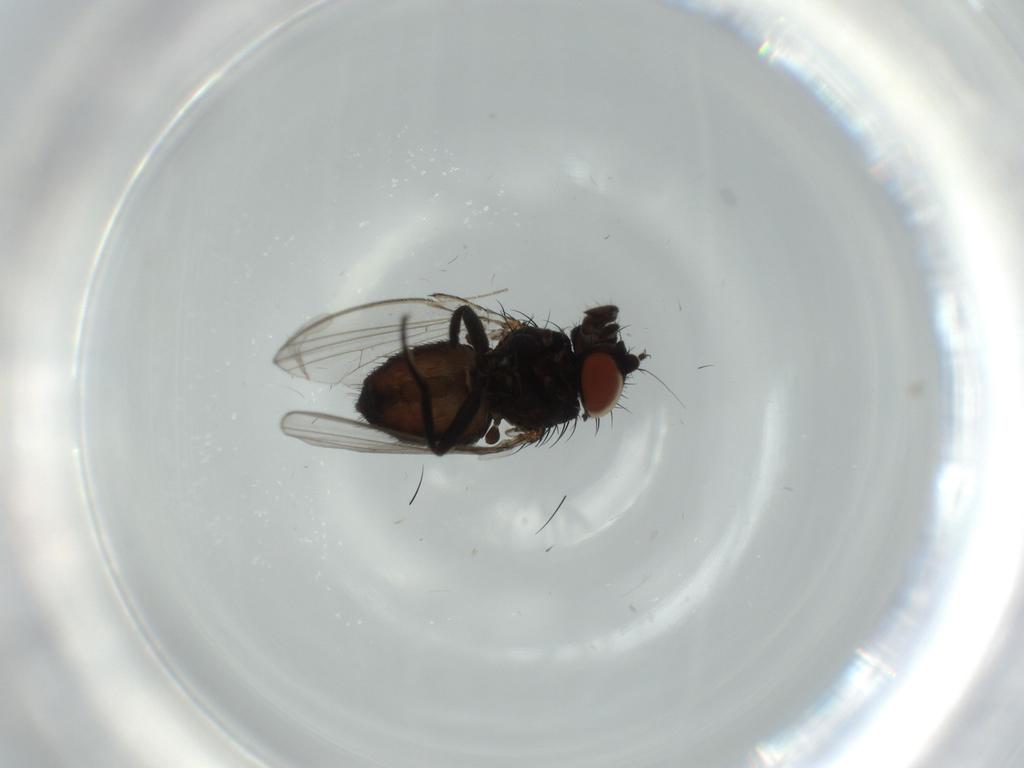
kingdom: Animalia
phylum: Arthropoda
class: Insecta
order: Diptera
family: Milichiidae
